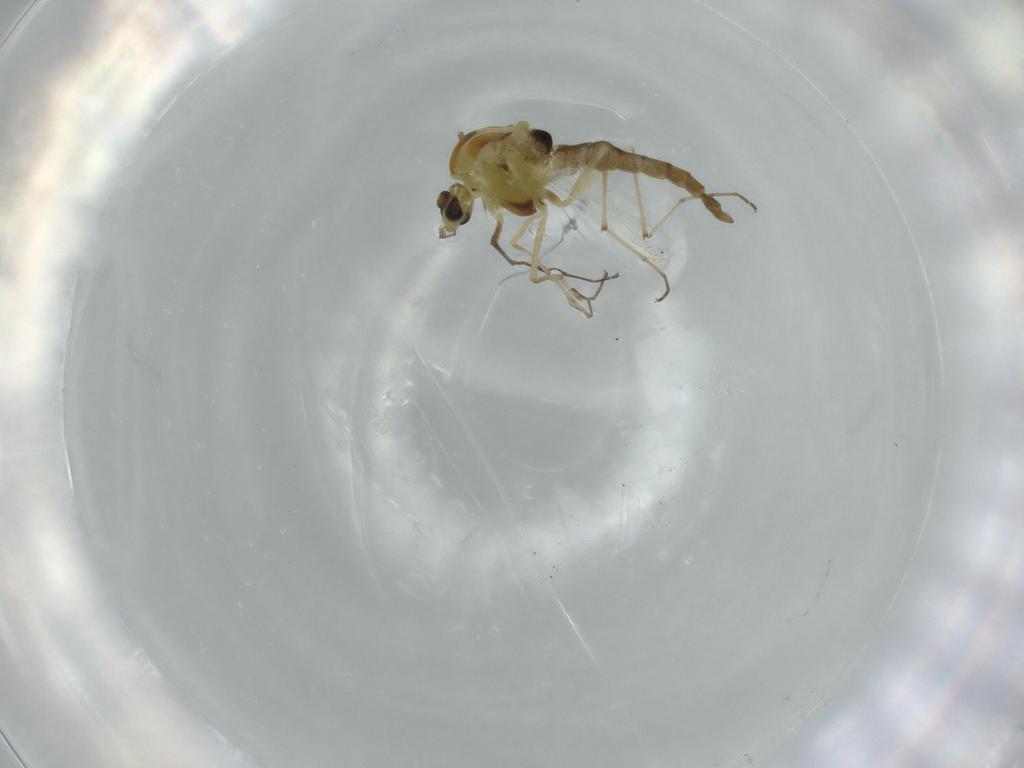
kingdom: Animalia
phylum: Arthropoda
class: Insecta
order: Diptera
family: Chironomidae
